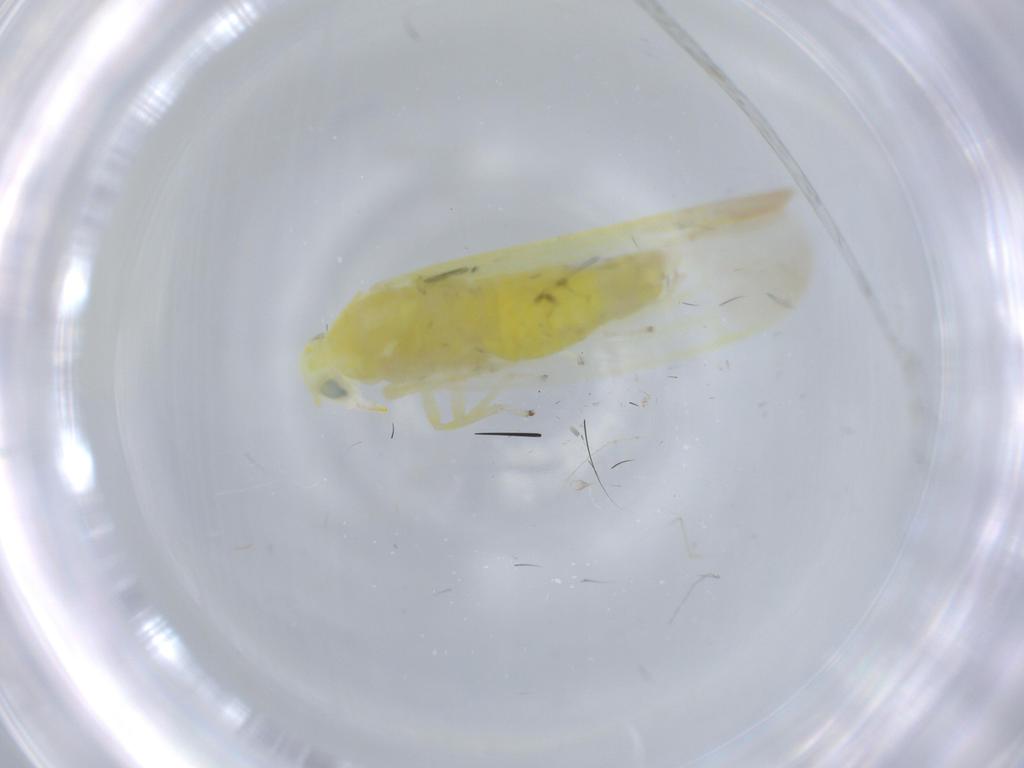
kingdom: Animalia
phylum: Arthropoda
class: Insecta
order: Hemiptera
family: Cicadellidae
